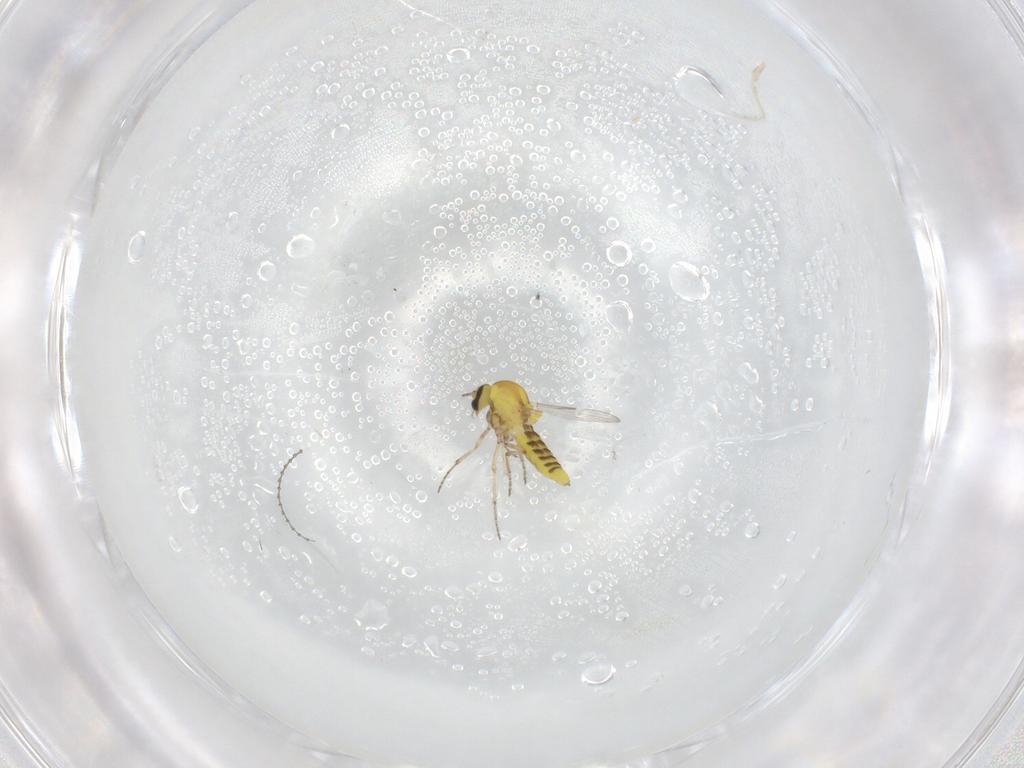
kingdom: Animalia
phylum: Arthropoda
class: Insecta
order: Diptera
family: Ceratopogonidae
